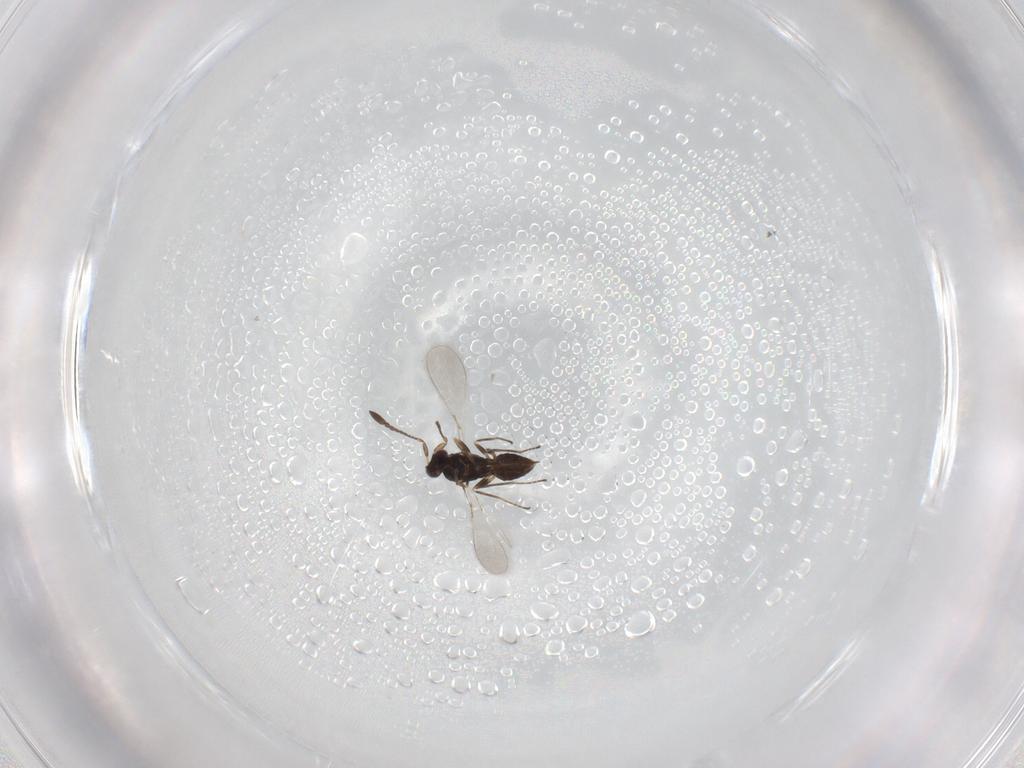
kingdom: Animalia
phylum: Arthropoda
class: Insecta
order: Hymenoptera
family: Mymaridae
